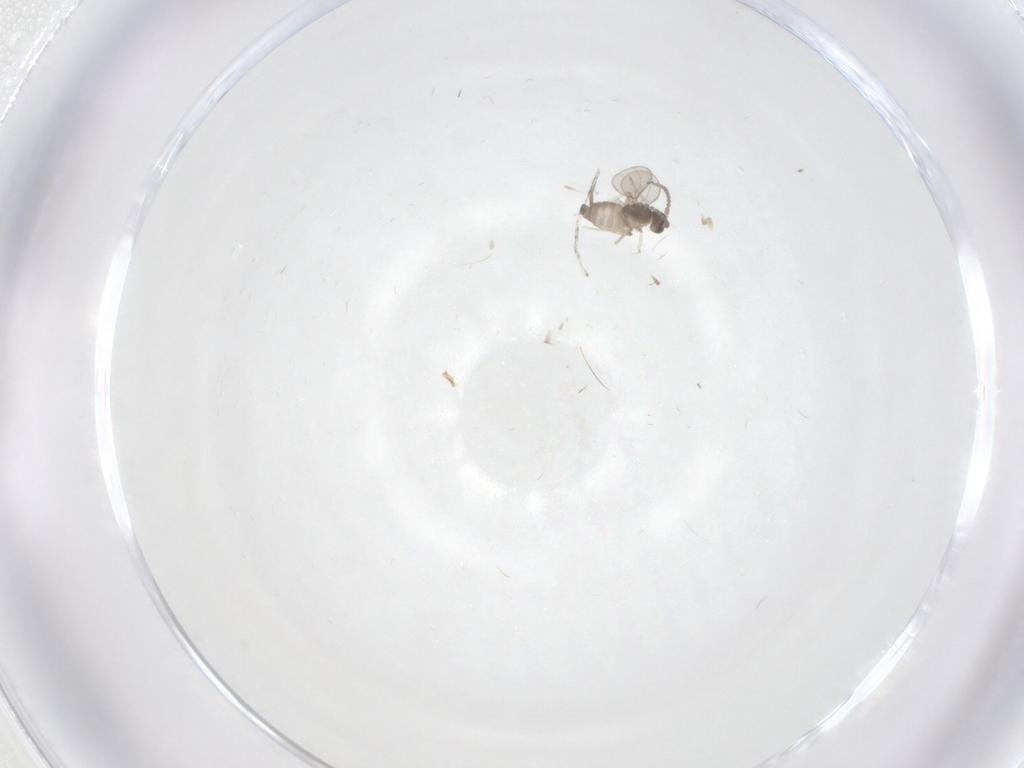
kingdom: Animalia
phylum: Arthropoda
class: Insecta
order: Diptera
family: Cecidomyiidae
